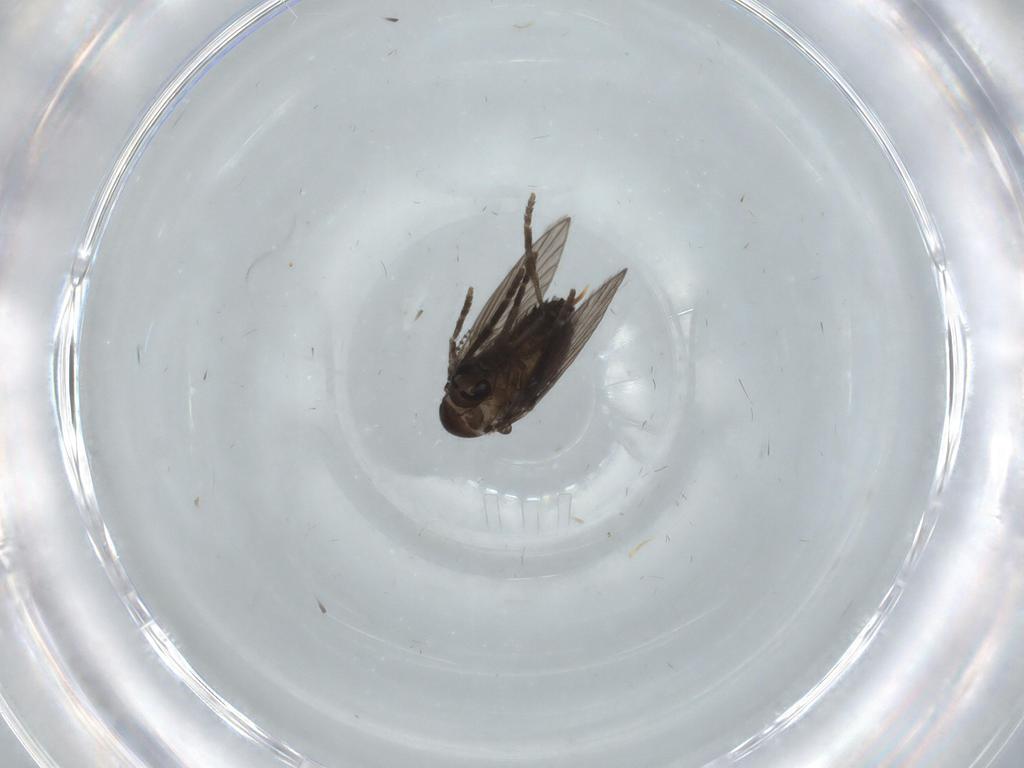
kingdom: Animalia
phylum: Arthropoda
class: Insecta
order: Diptera
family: Psychodidae
